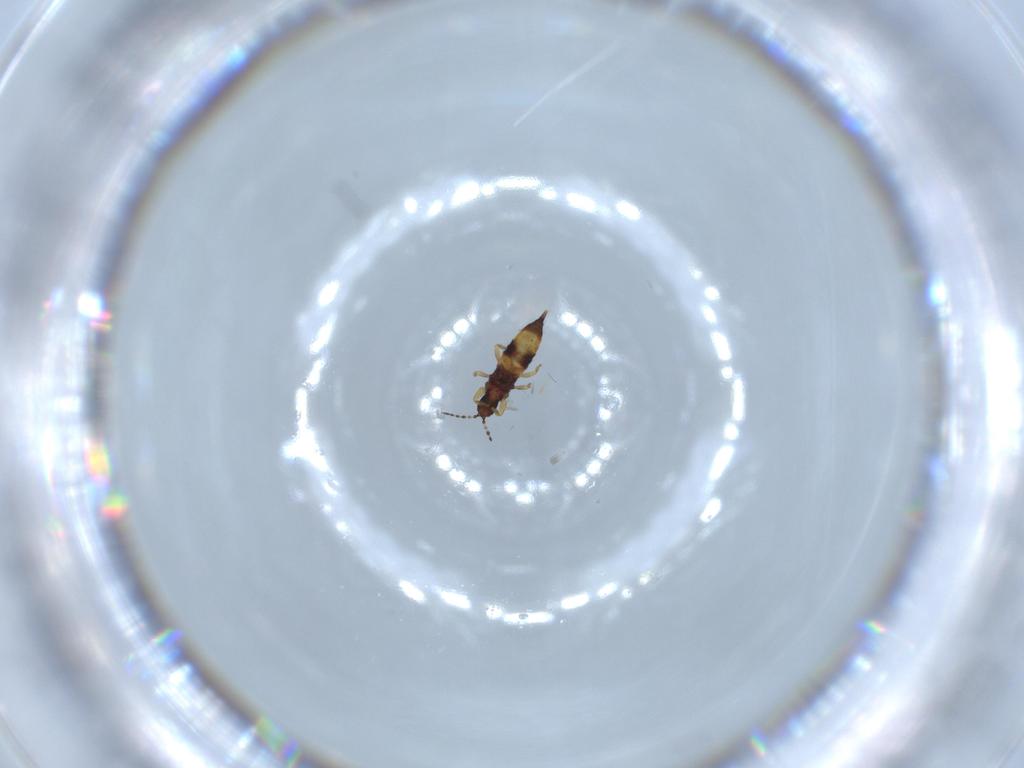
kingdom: Animalia
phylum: Arthropoda
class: Insecta
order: Thysanoptera
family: Phlaeothripidae
